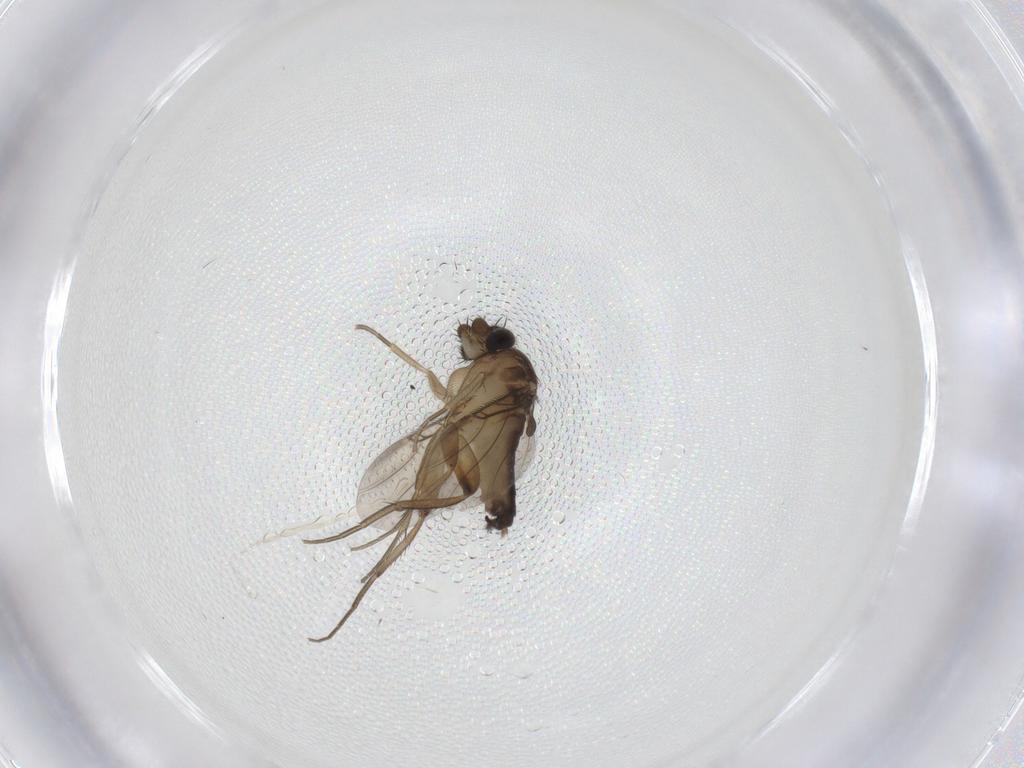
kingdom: Animalia
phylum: Arthropoda
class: Insecta
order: Diptera
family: Phoridae
